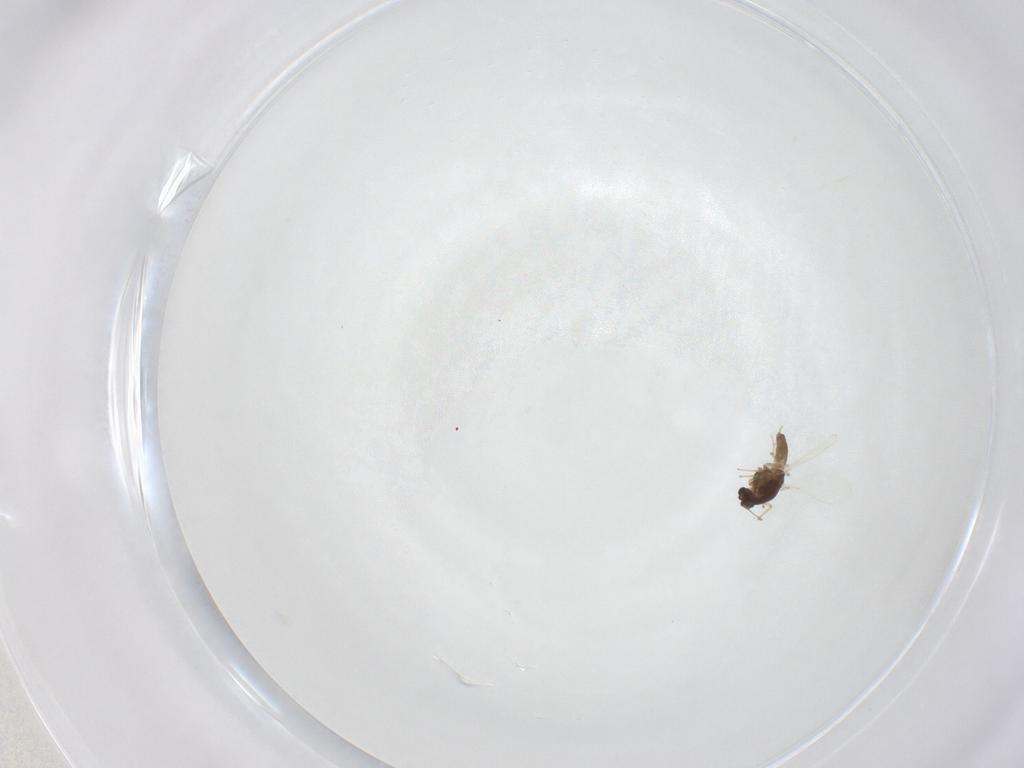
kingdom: Animalia
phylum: Arthropoda
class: Insecta
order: Diptera
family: Chironomidae
